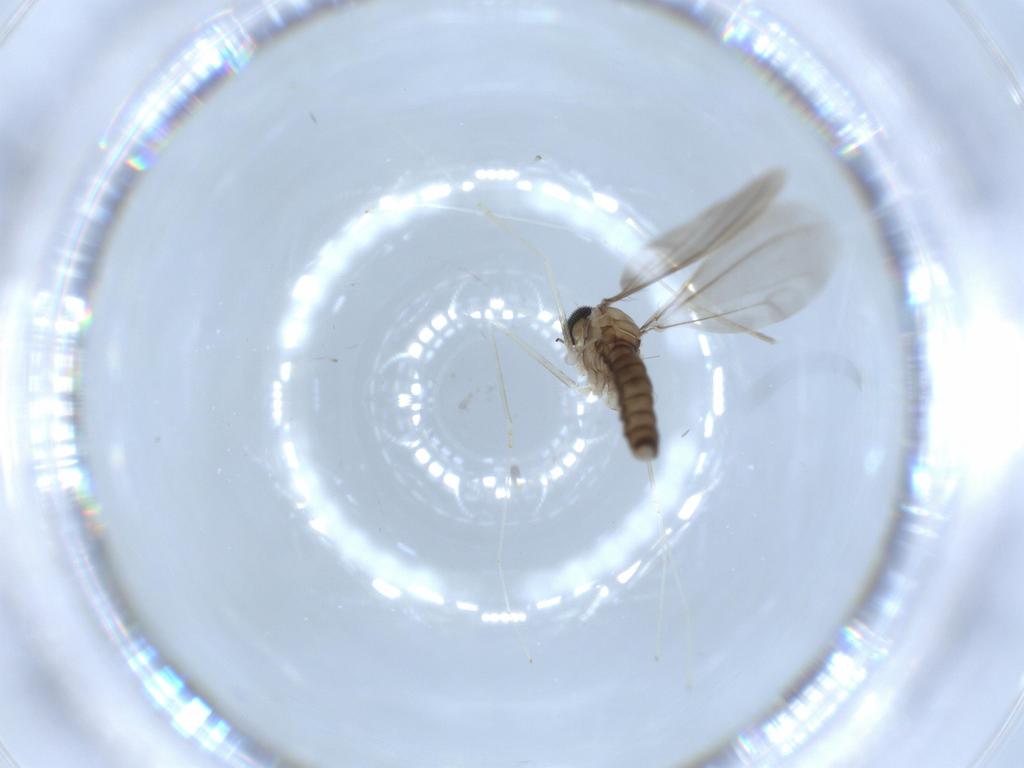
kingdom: Animalia
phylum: Arthropoda
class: Insecta
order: Diptera
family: Cecidomyiidae
